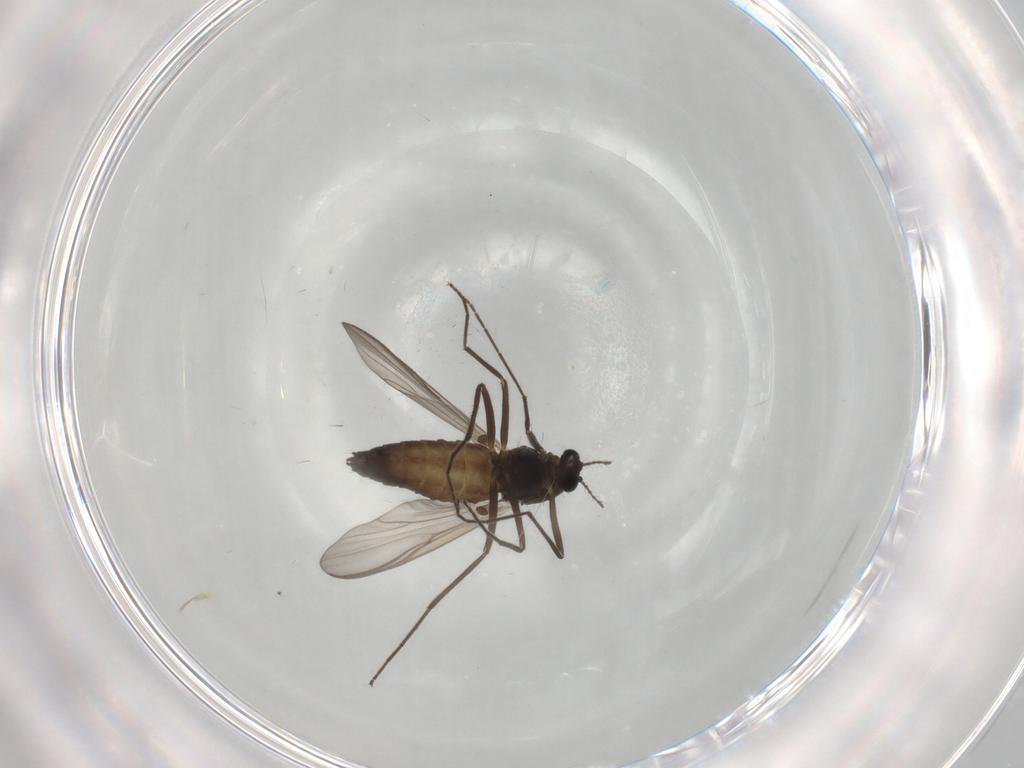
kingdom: Animalia
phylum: Arthropoda
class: Insecta
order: Diptera
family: Chironomidae
